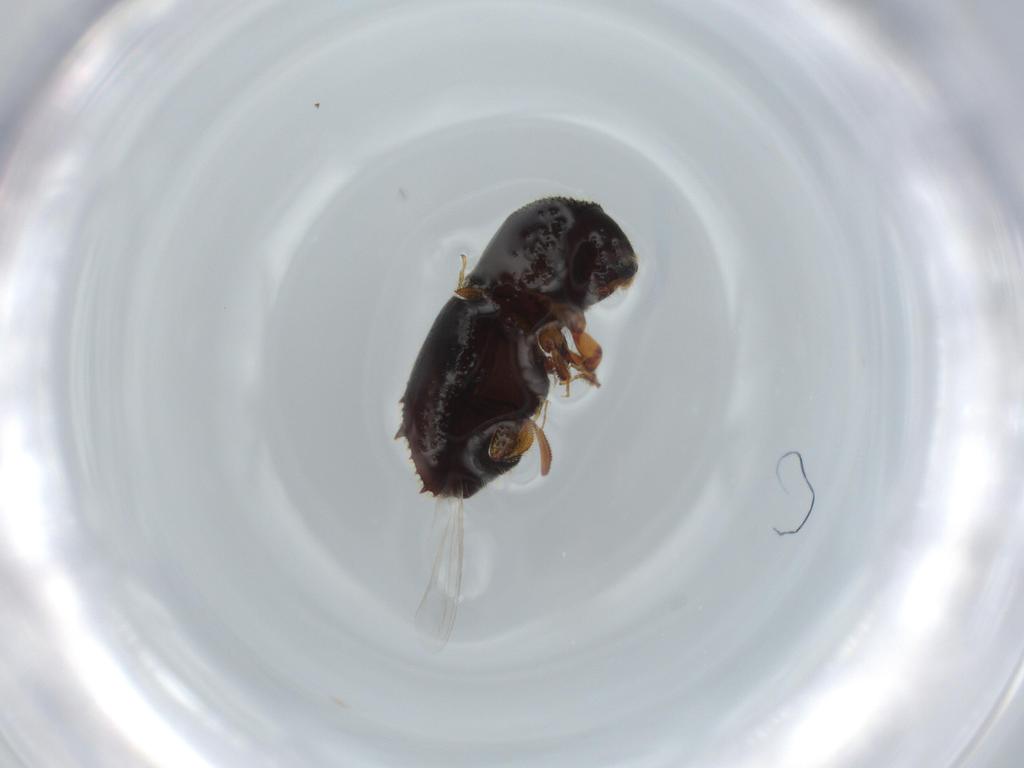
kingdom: Animalia
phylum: Arthropoda
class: Insecta
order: Coleoptera
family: Curculionidae
